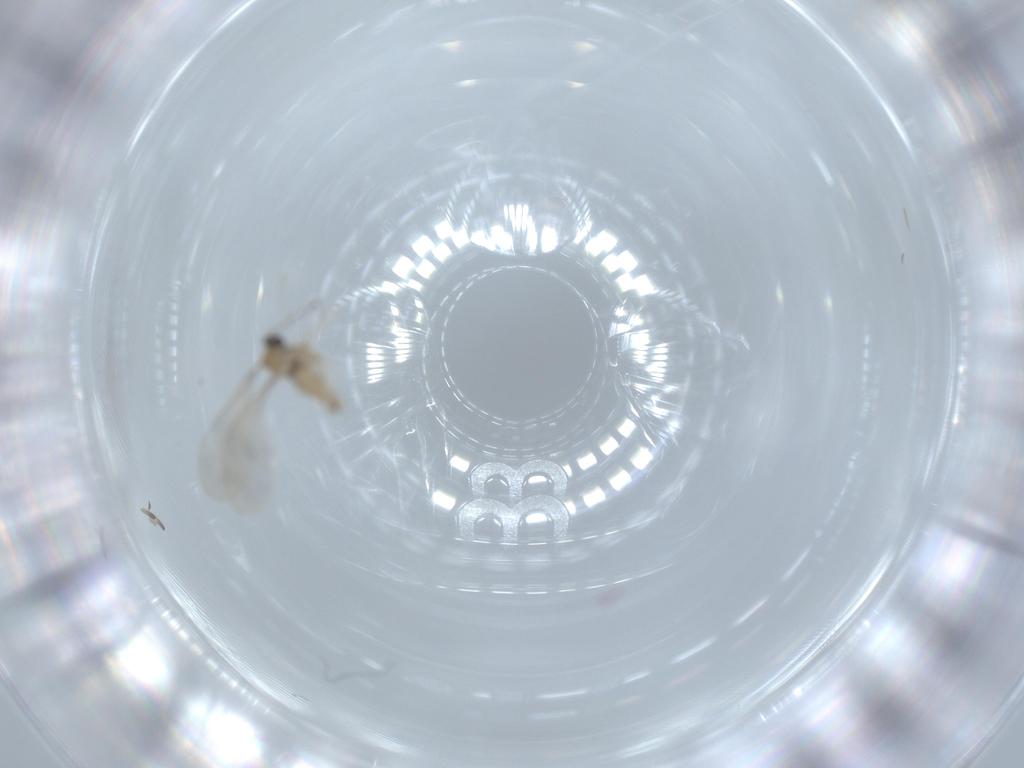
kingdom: Animalia
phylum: Arthropoda
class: Insecta
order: Diptera
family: Cecidomyiidae
